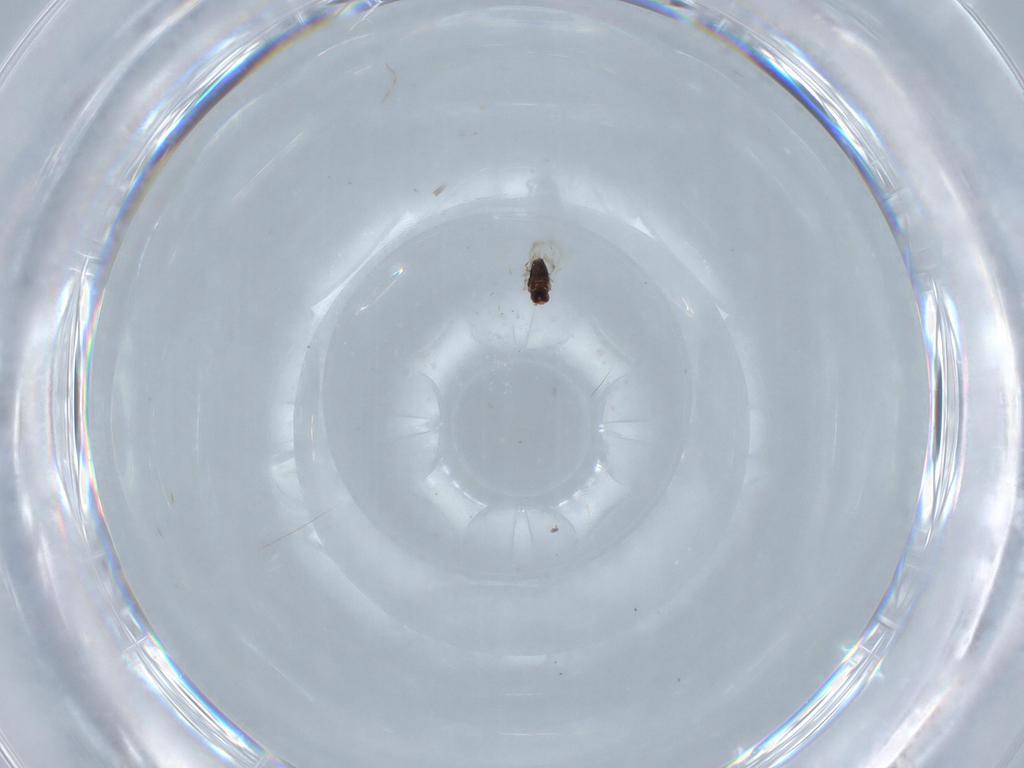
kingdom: Animalia
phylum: Arthropoda
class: Insecta
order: Hymenoptera
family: Azotidae
